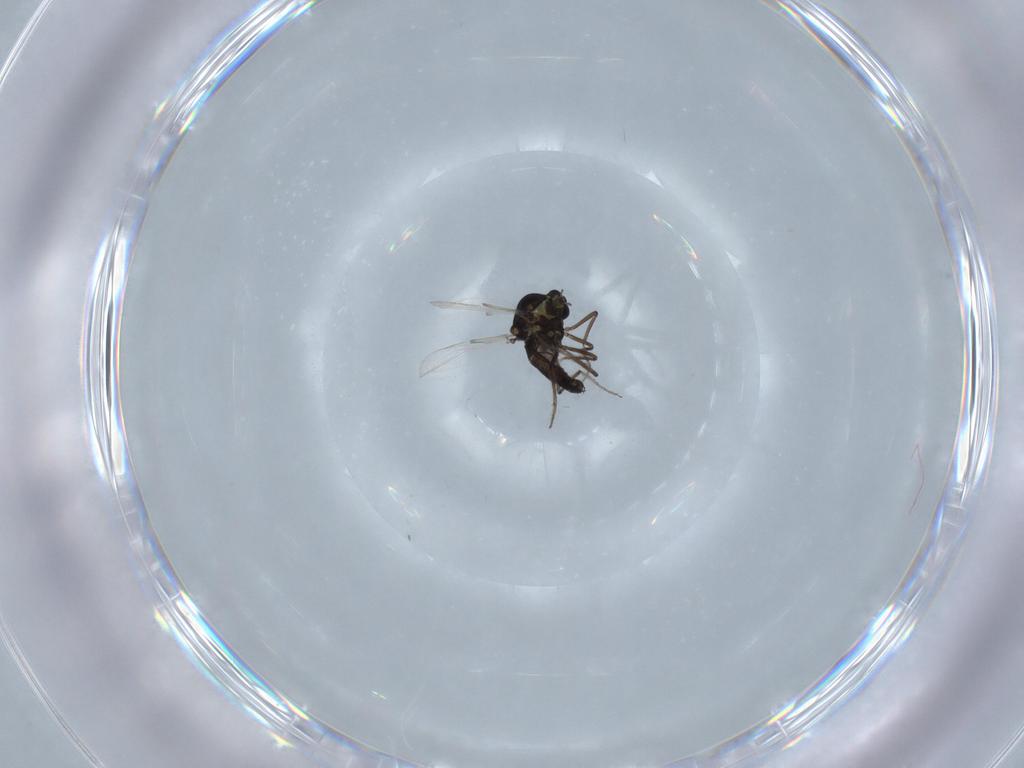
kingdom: Animalia
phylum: Arthropoda
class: Insecta
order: Diptera
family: Ceratopogonidae
